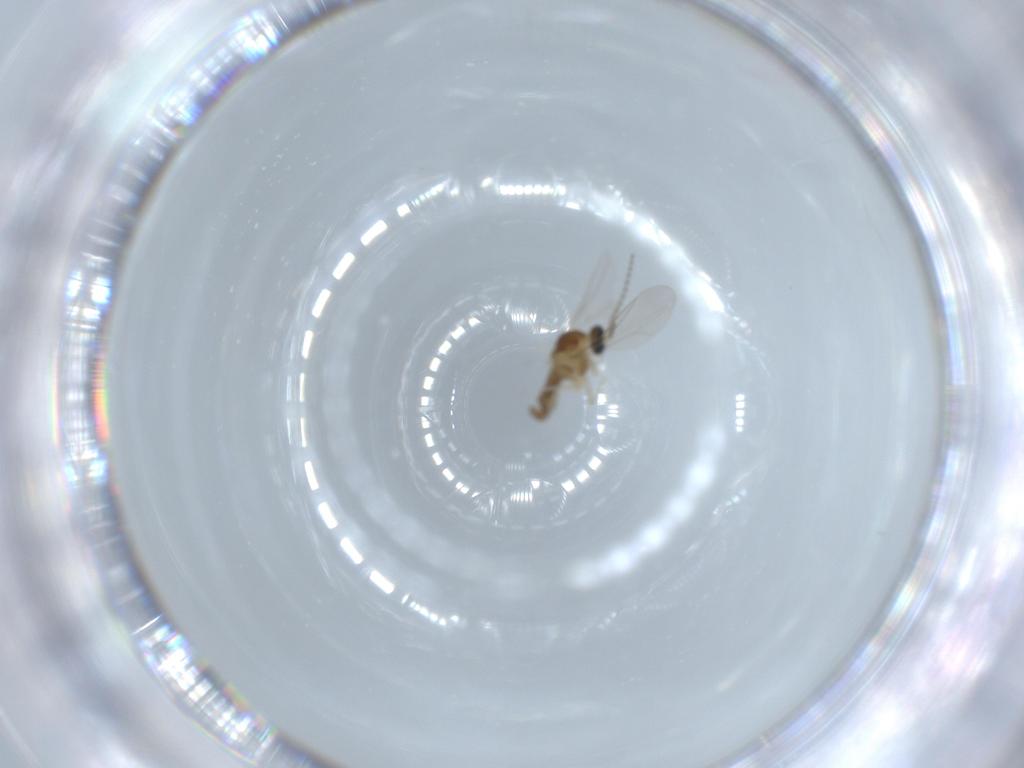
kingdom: Animalia
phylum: Arthropoda
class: Insecta
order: Diptera
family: Cecidomyiidae
